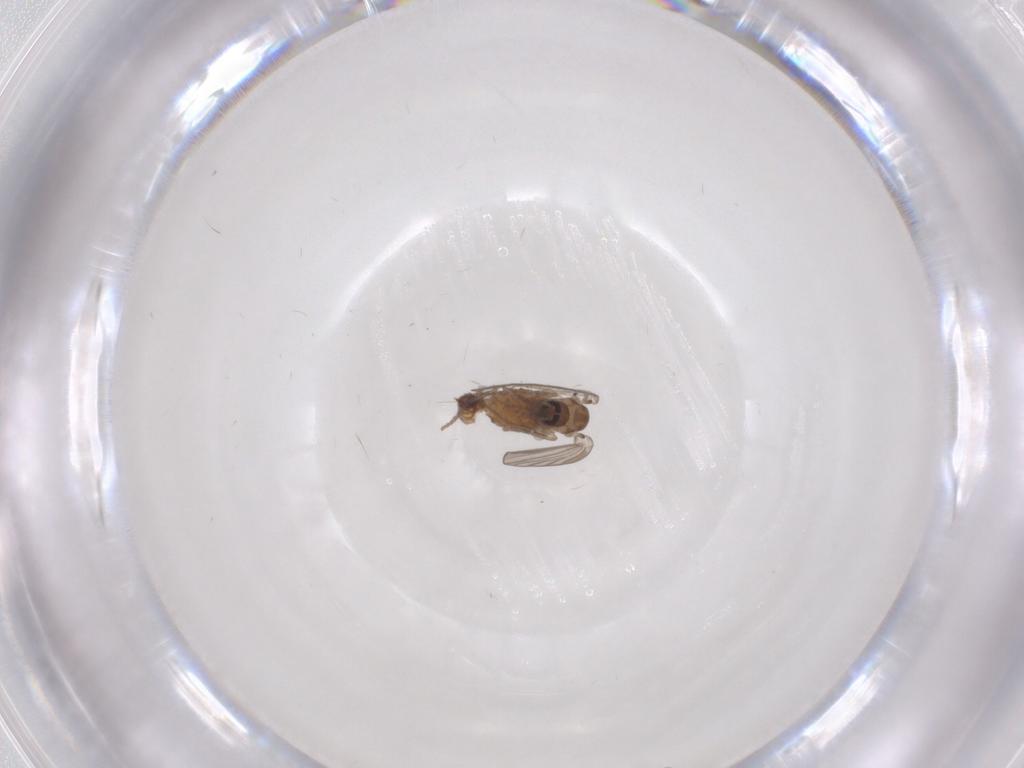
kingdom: Animalia
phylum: Arthropoda
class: Insecta
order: Diptera
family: Psychodidae
